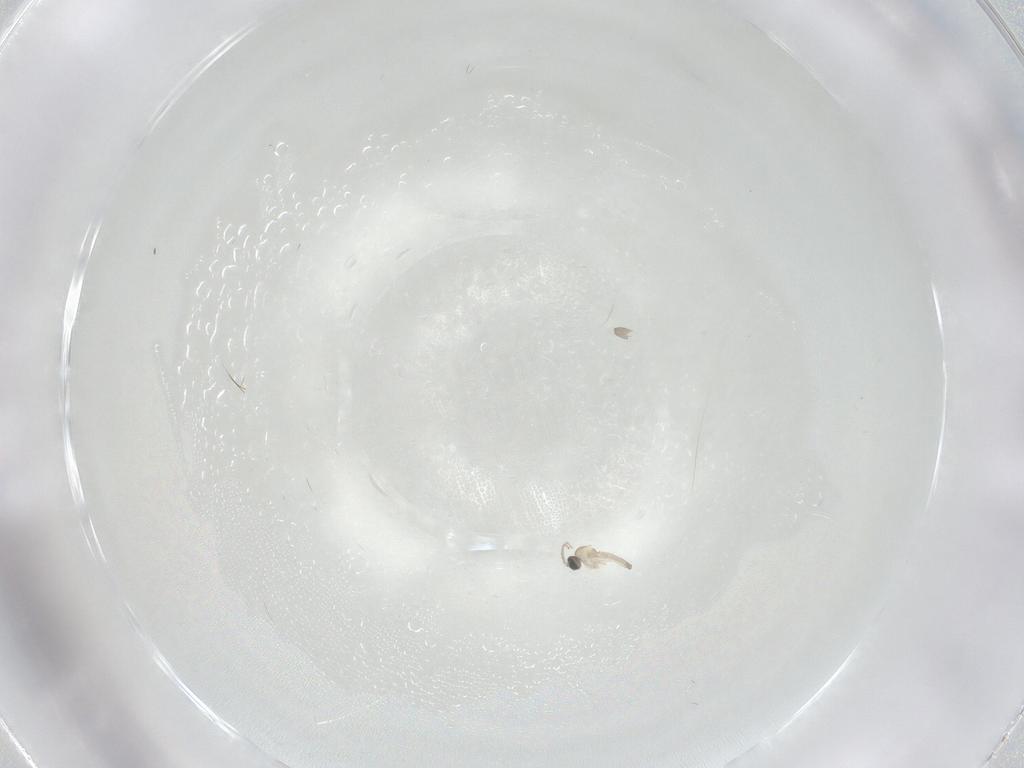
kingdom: Animalia
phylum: Arthropoda
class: Insecta
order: Diptera
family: Cecidomyiidae
